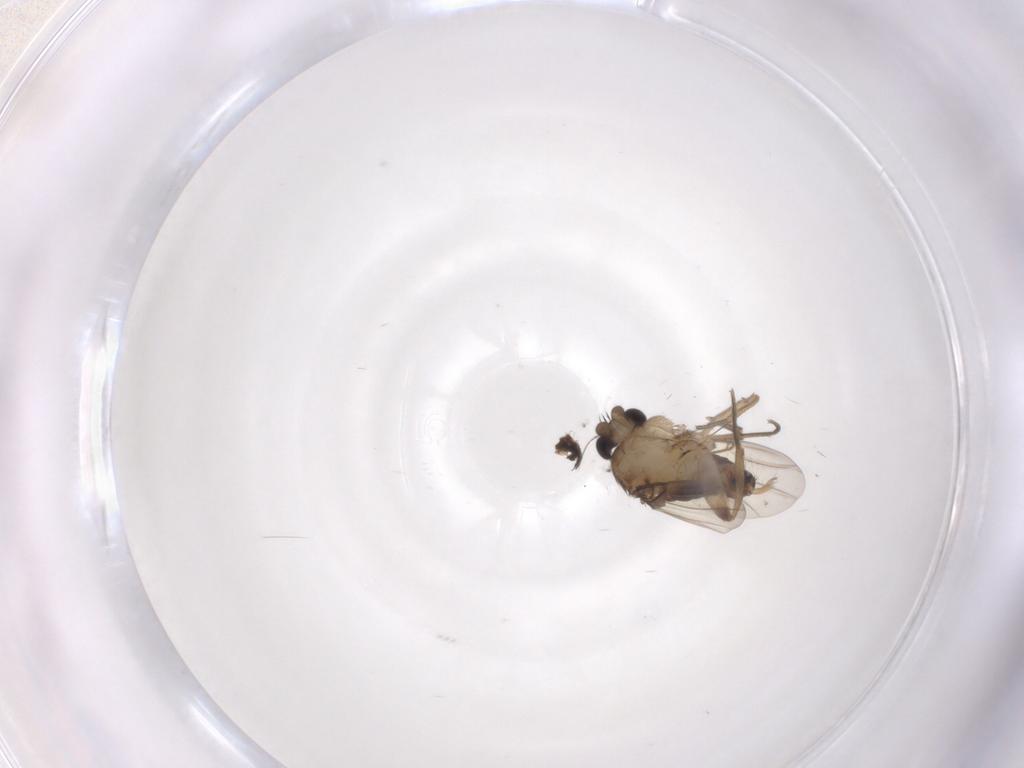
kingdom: Animalia
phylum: Arthropoda
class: Insecta
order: Diptera
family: Phoridae
